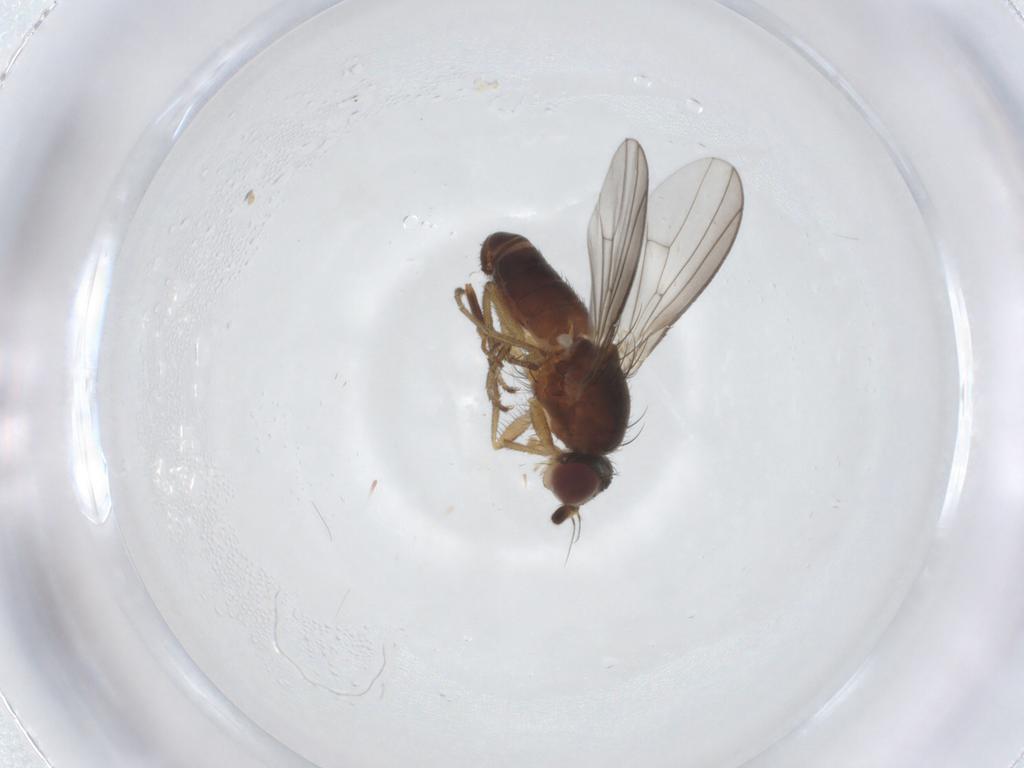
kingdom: Animalia
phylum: Arthropoda
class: Insecta
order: Diptera
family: Heleomyzidae
